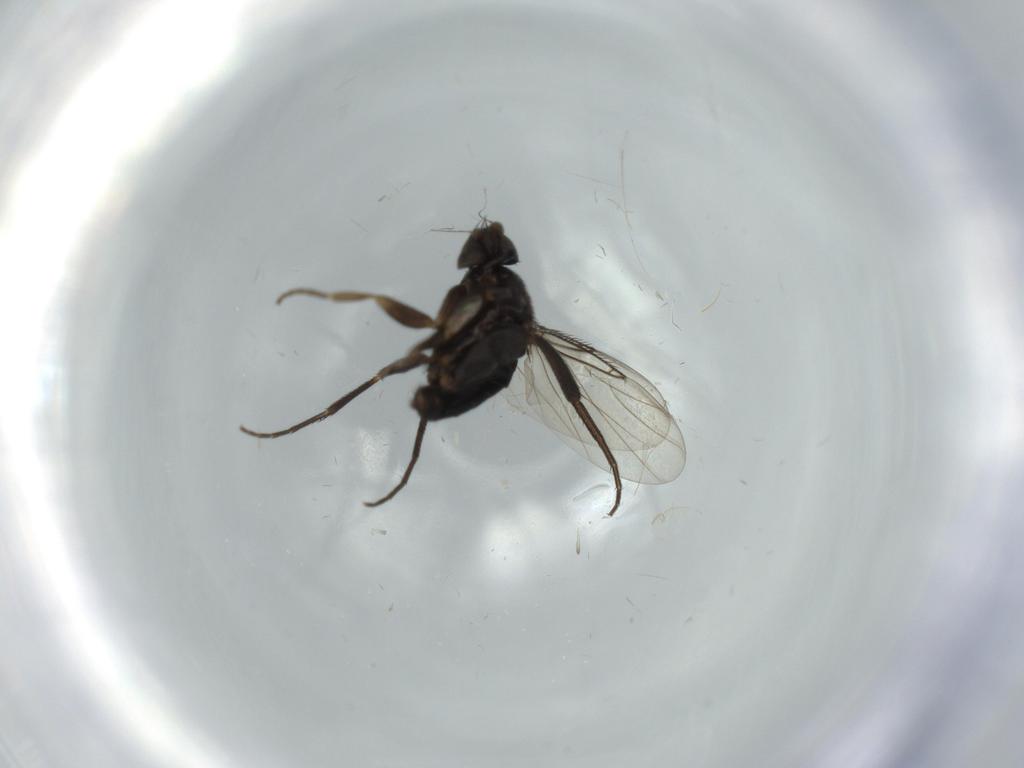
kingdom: Animalia
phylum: Arthropoda
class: Insecta
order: Diptera
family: Phoridae
